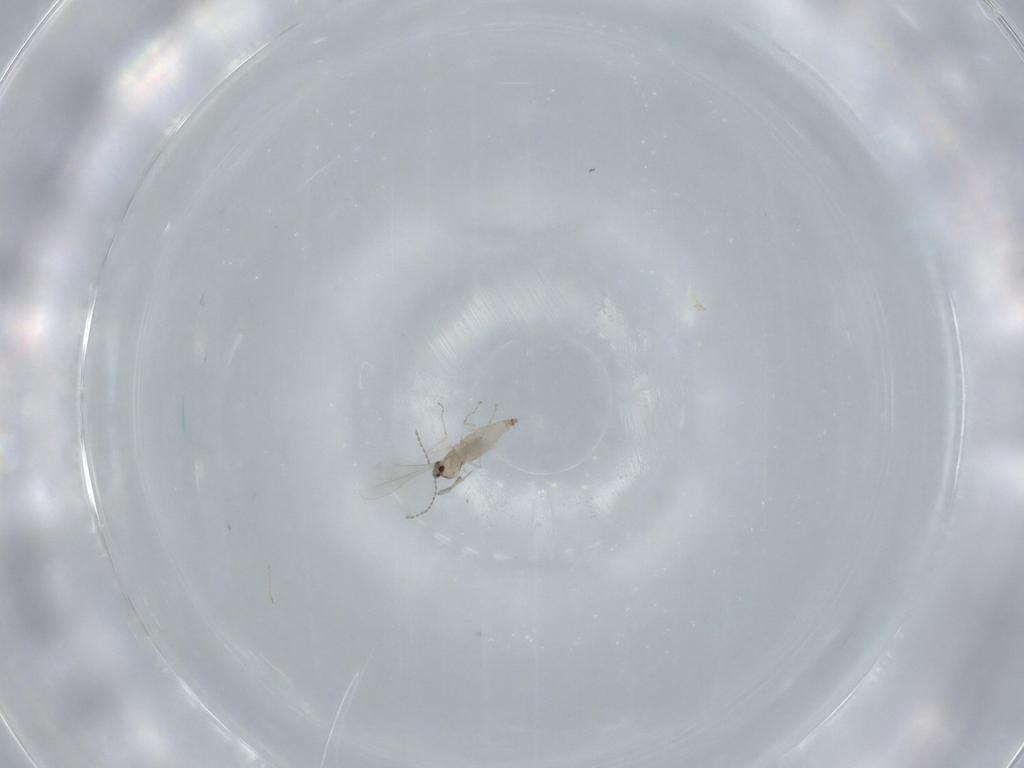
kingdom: Animalia
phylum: Arthropoda
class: Insecta
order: Diptera
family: Cecidomyiidae
